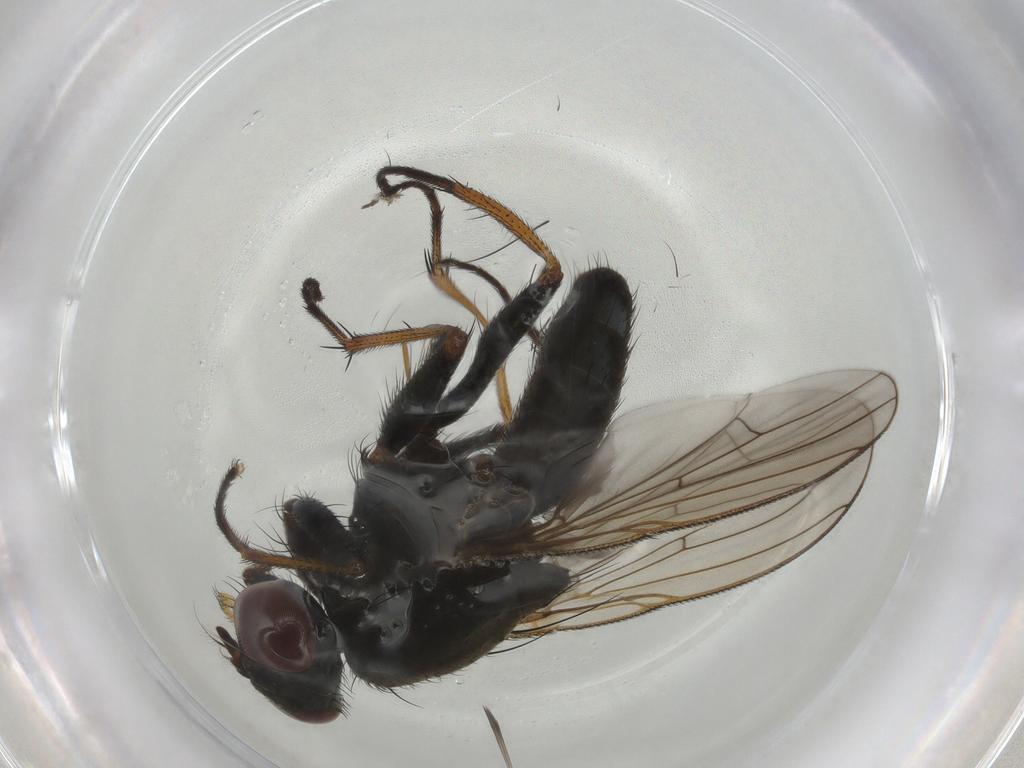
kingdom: Animalia
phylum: Arthropoda
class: Insecta
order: Diptera
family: Muscidae
